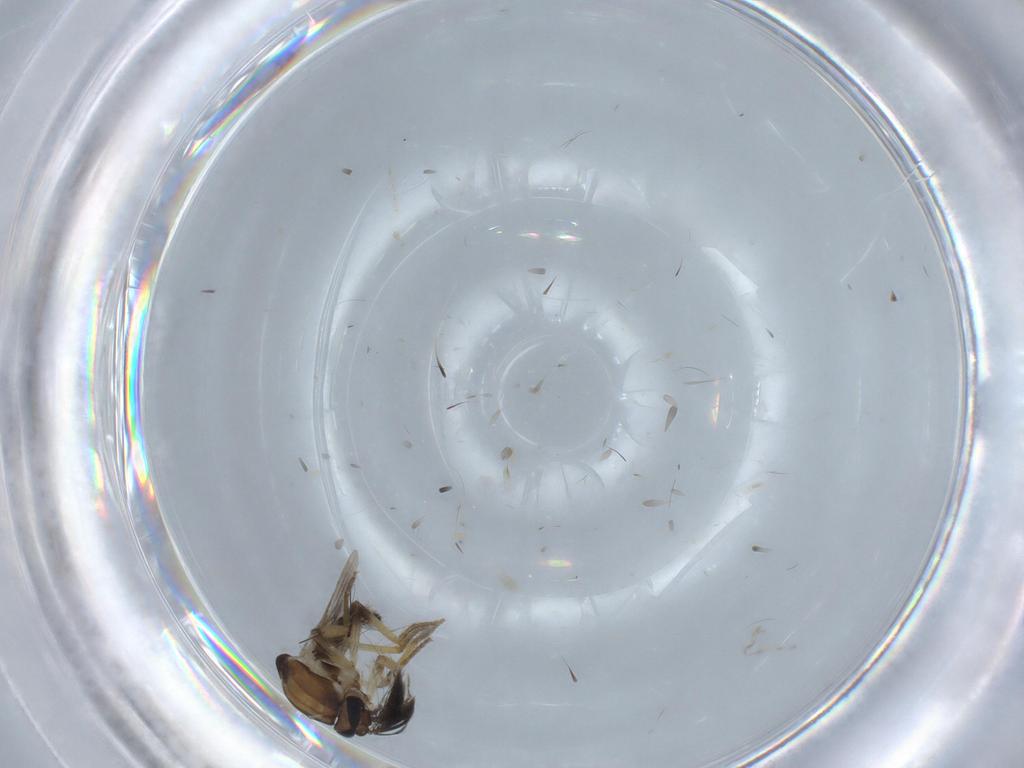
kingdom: Animalia
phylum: Arthropoda
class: Insecta
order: Diptera
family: Ceratopogonidae
